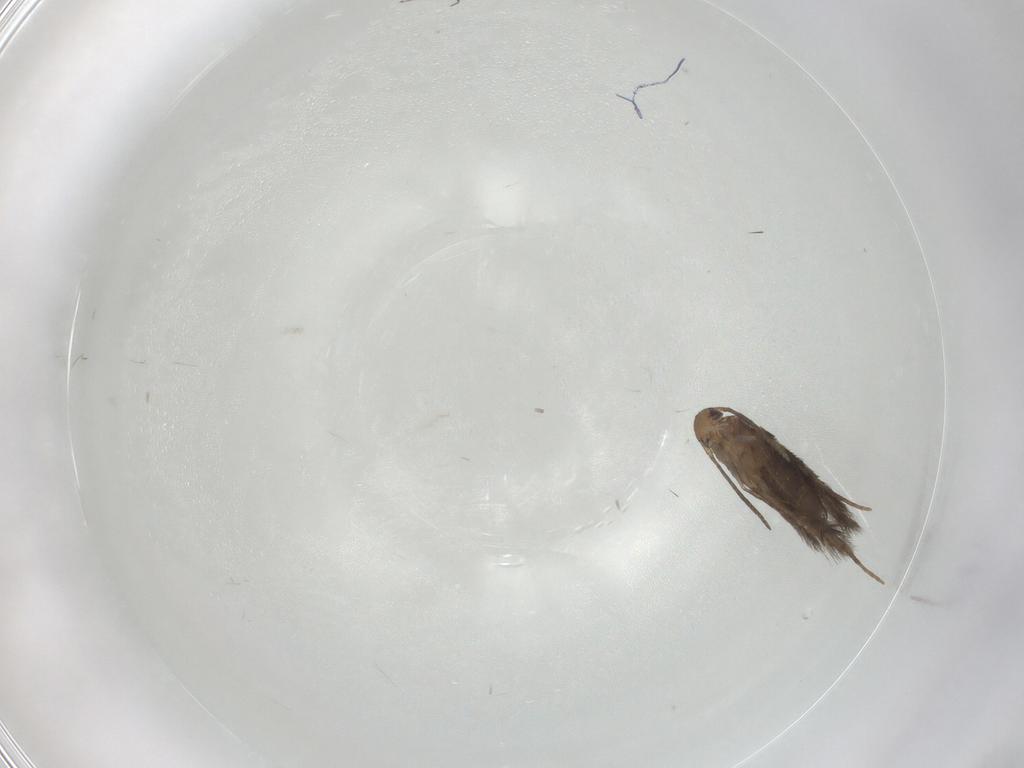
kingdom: Animalia
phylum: Arthropoda
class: Insecta
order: Lepidoptera
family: Gelechiidae
